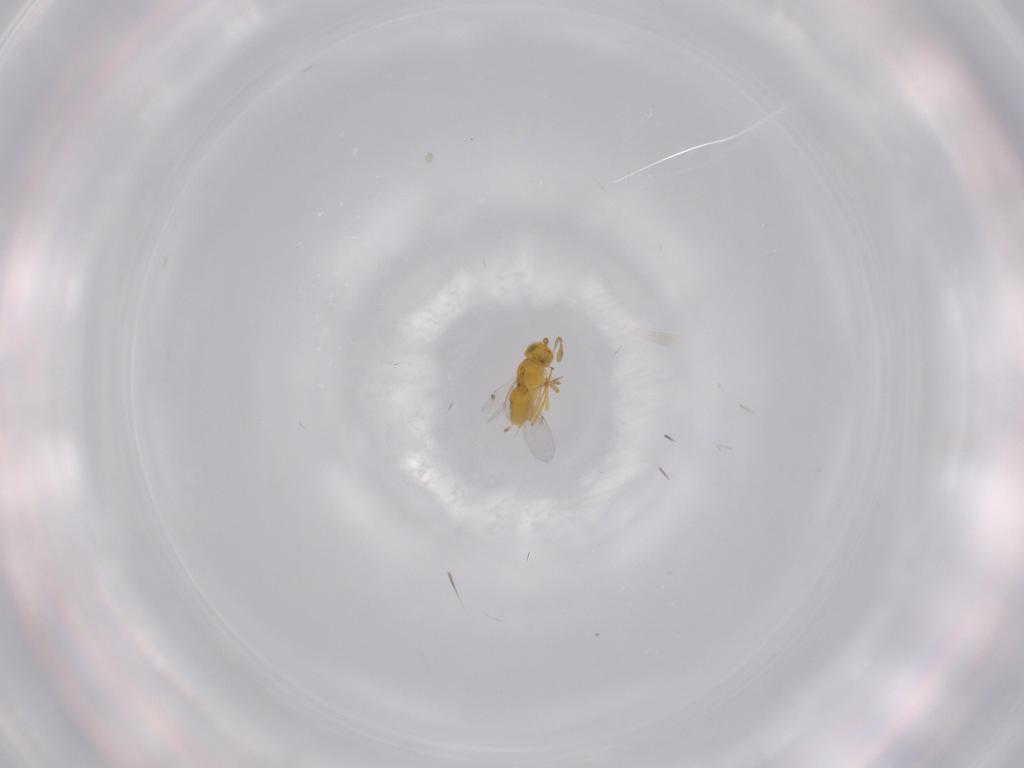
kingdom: Animalia
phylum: Arthropoda
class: Insecta
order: Hymenoptera
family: Encyrtidae
